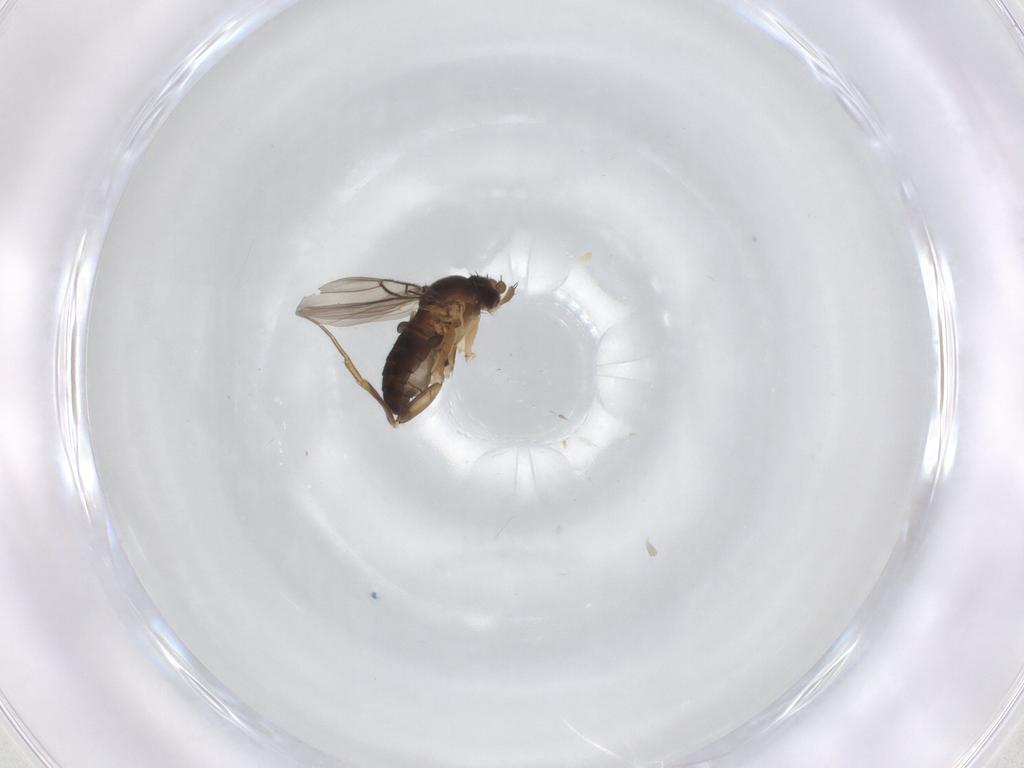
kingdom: Animalia
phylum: Arthropoda
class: Insecta
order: Diptera
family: Phoridae
